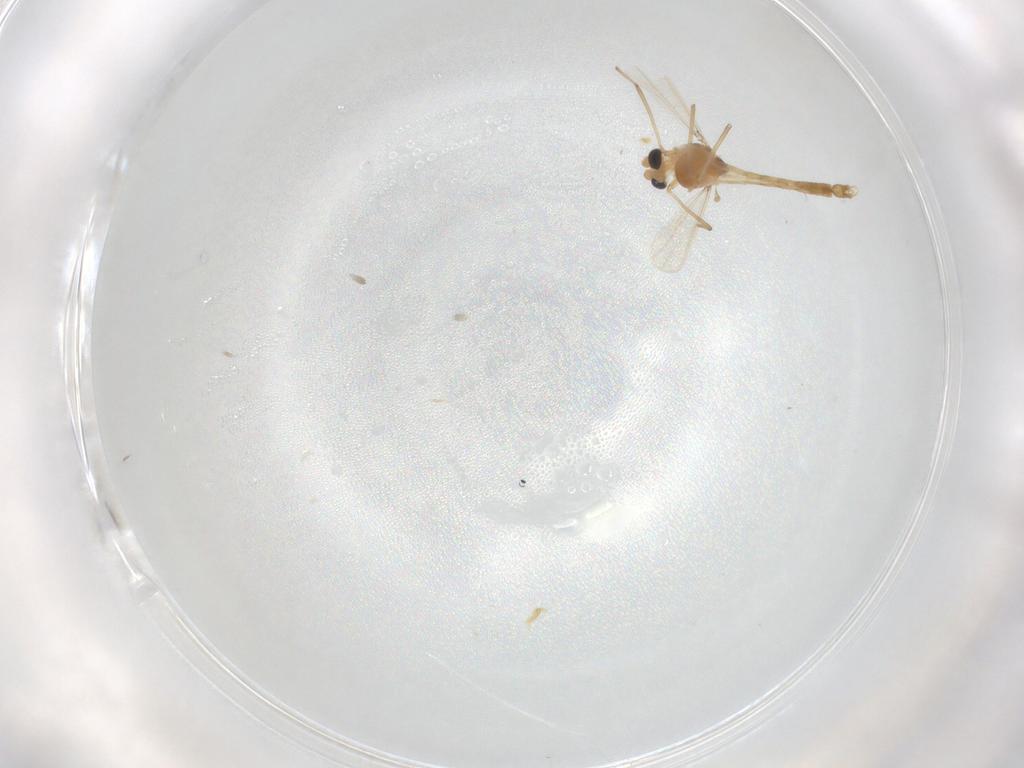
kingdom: Animalia
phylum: Arthropoda
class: Insecta
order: Diptera
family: Chironomidae
